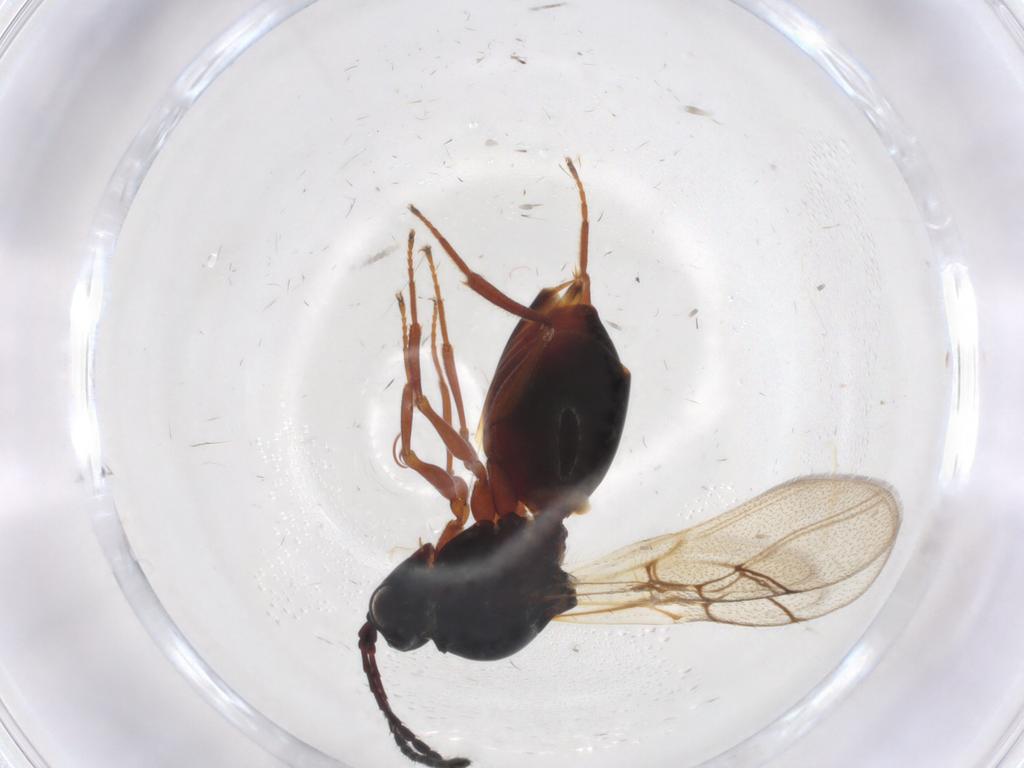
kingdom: Animalia
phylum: Arthropoda
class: Insecta
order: Hymenoptera
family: Figitidae
